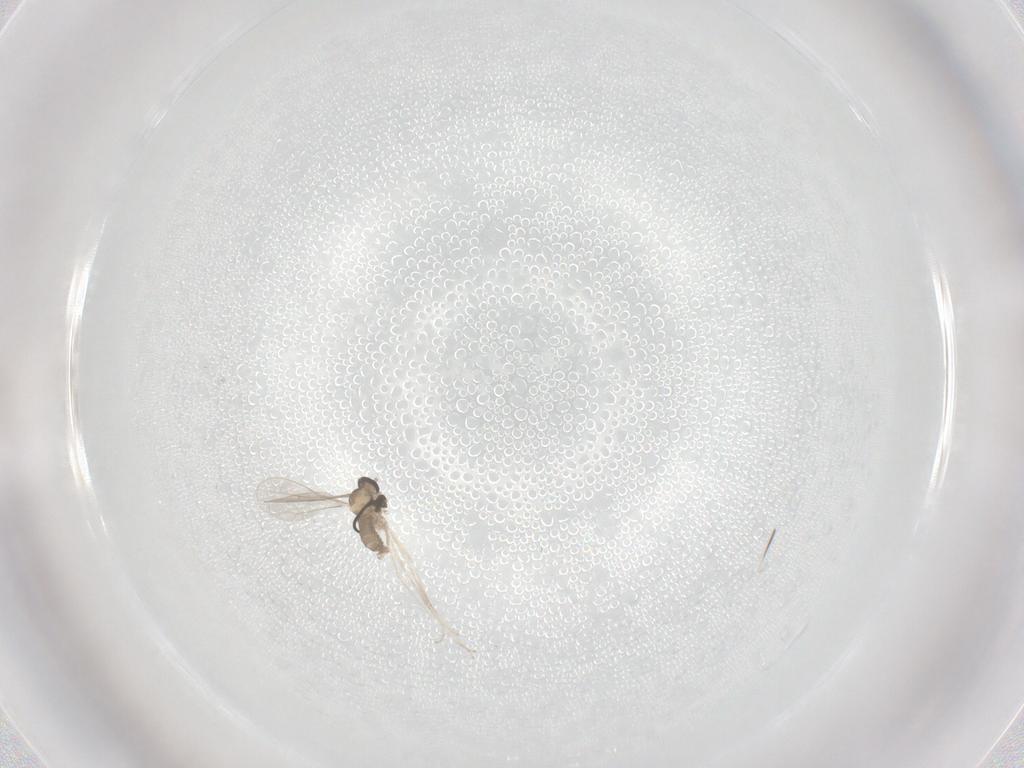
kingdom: Animalia
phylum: Arthropoda
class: Insecta
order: Diptera
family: Cecidomyiidae
